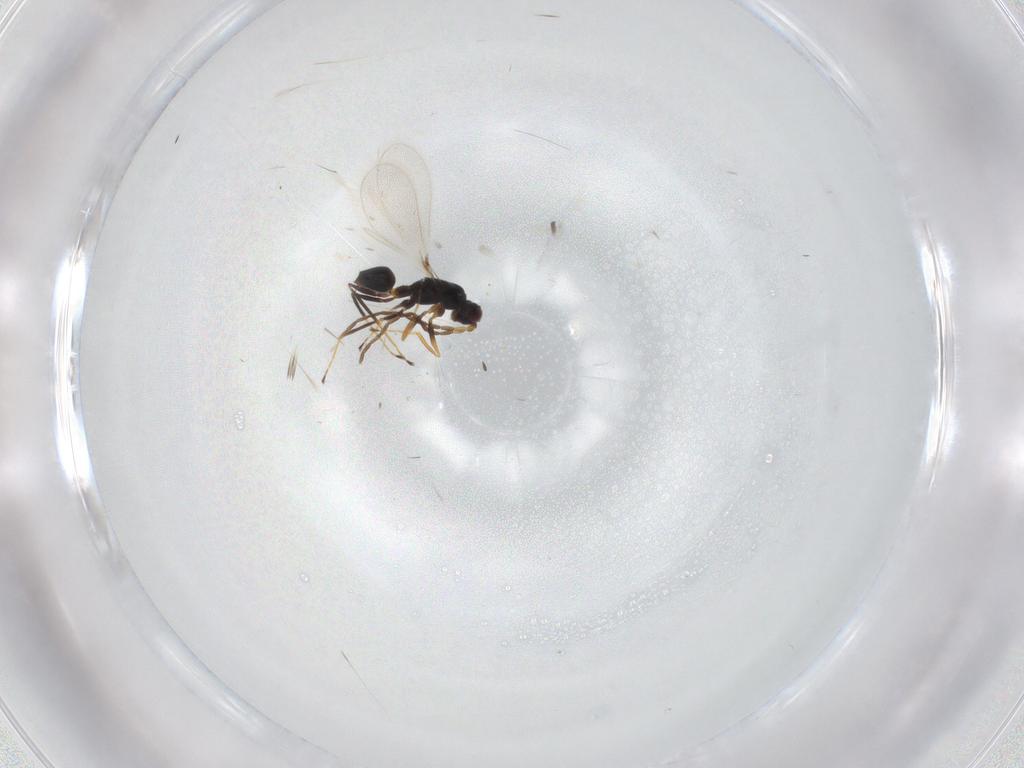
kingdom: Animalia
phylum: Arthropoda
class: Insecta
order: Hymenoptera
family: Mymaridae
